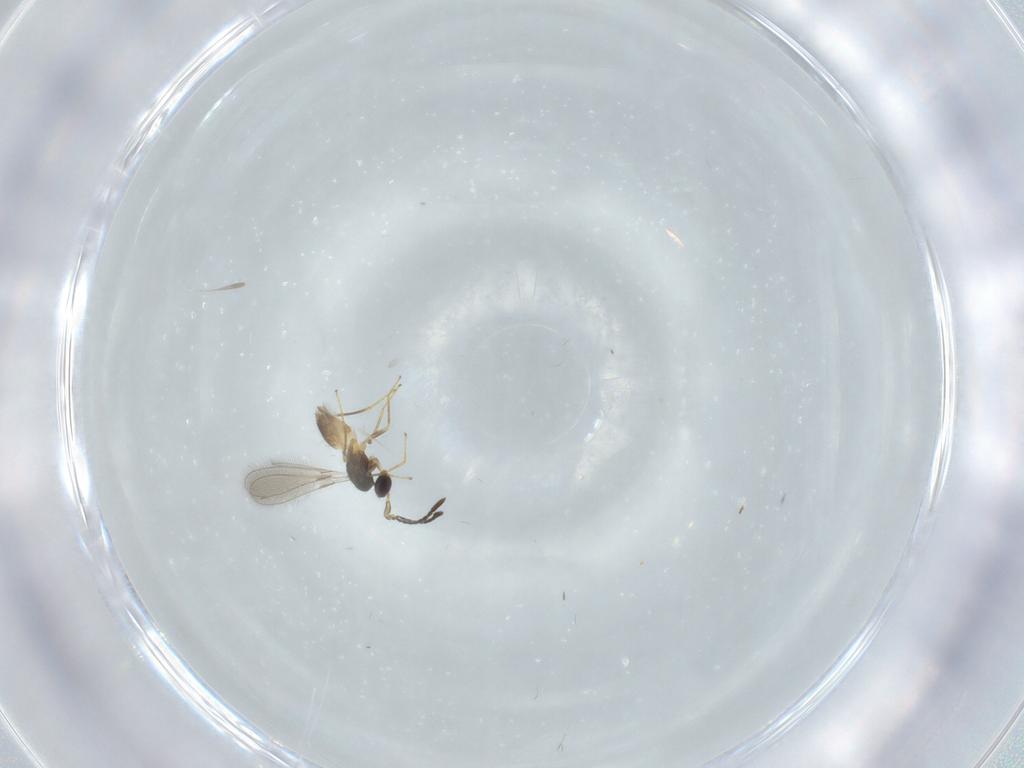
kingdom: Animalia
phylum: Arthropoda
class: Insecta
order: Hymenoptera
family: Mymaridae
